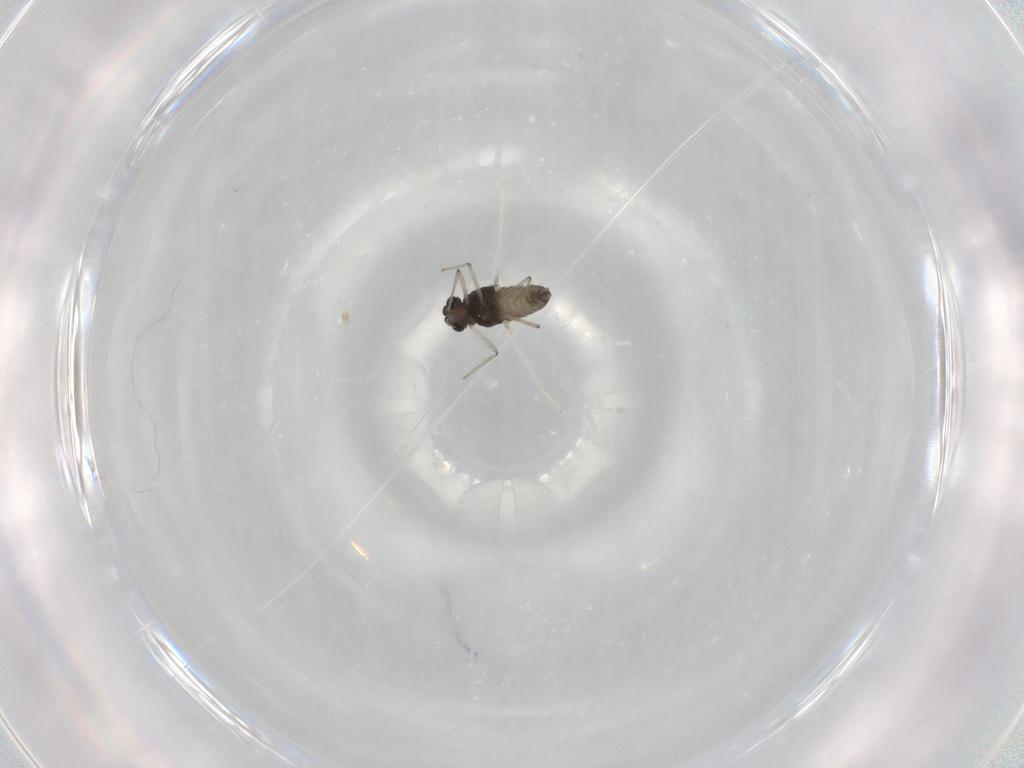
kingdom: Animalia
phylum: Arthropoda
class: Insecta
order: Diptera
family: Chironomidae
